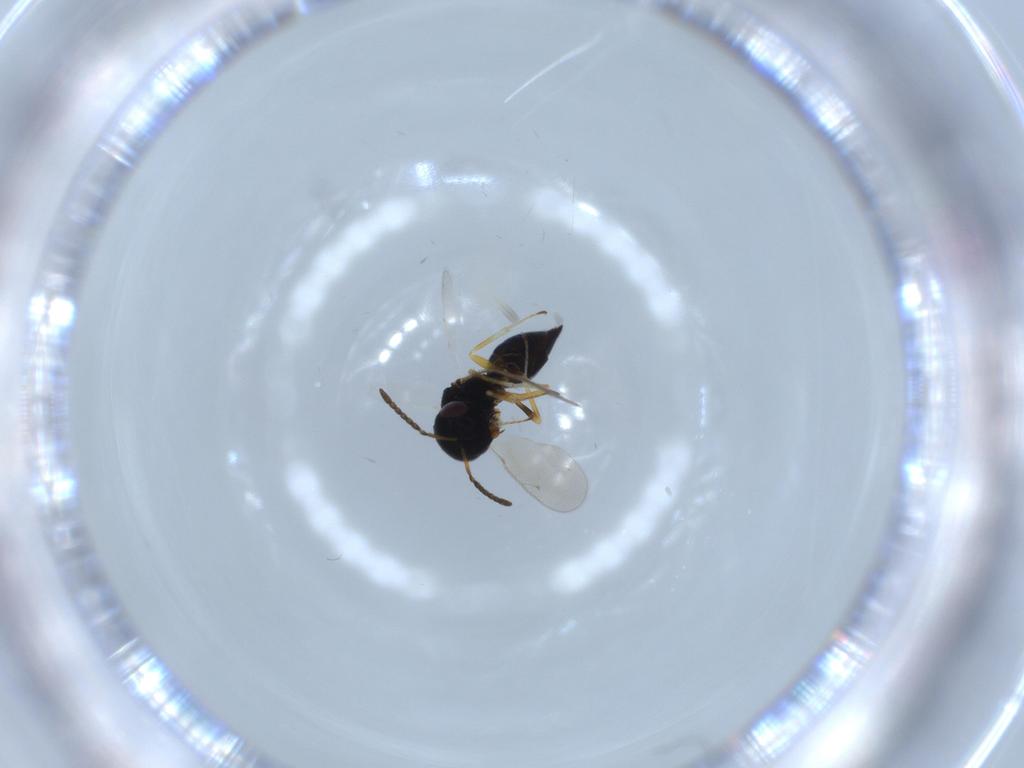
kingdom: Animalia
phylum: Arthropoda
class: Insecta
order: Hymenoptera
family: Pteromalidae
